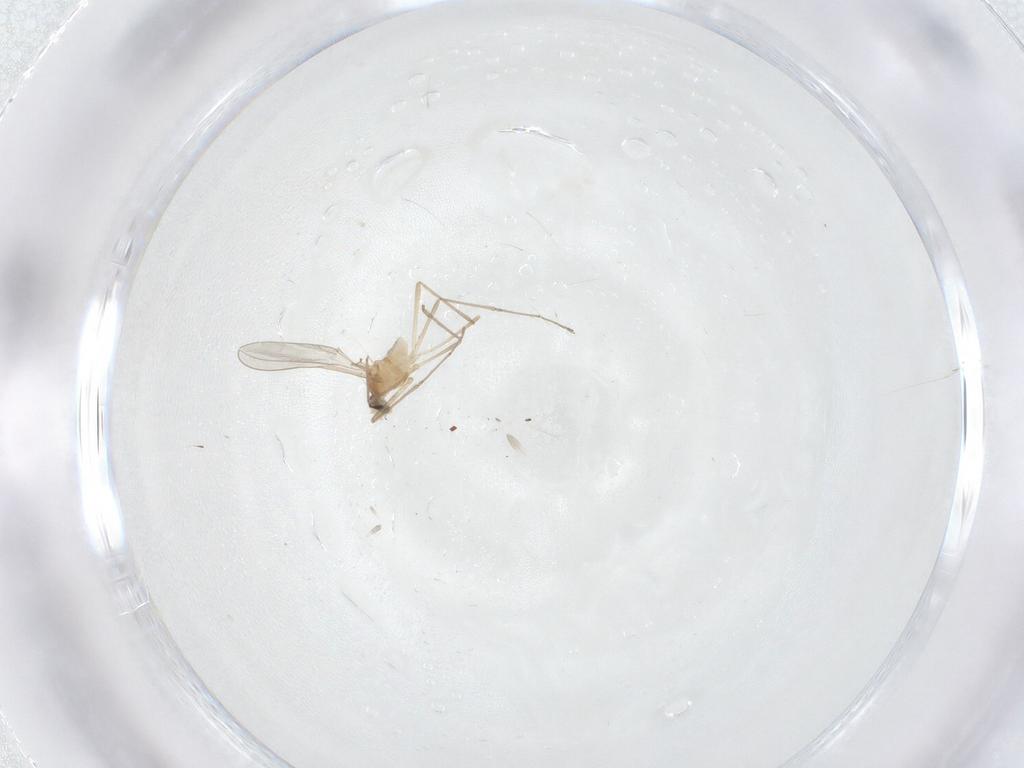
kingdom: Animalia
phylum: Arthropoda
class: Insecta
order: Diptera
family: Cecidomyiidae
